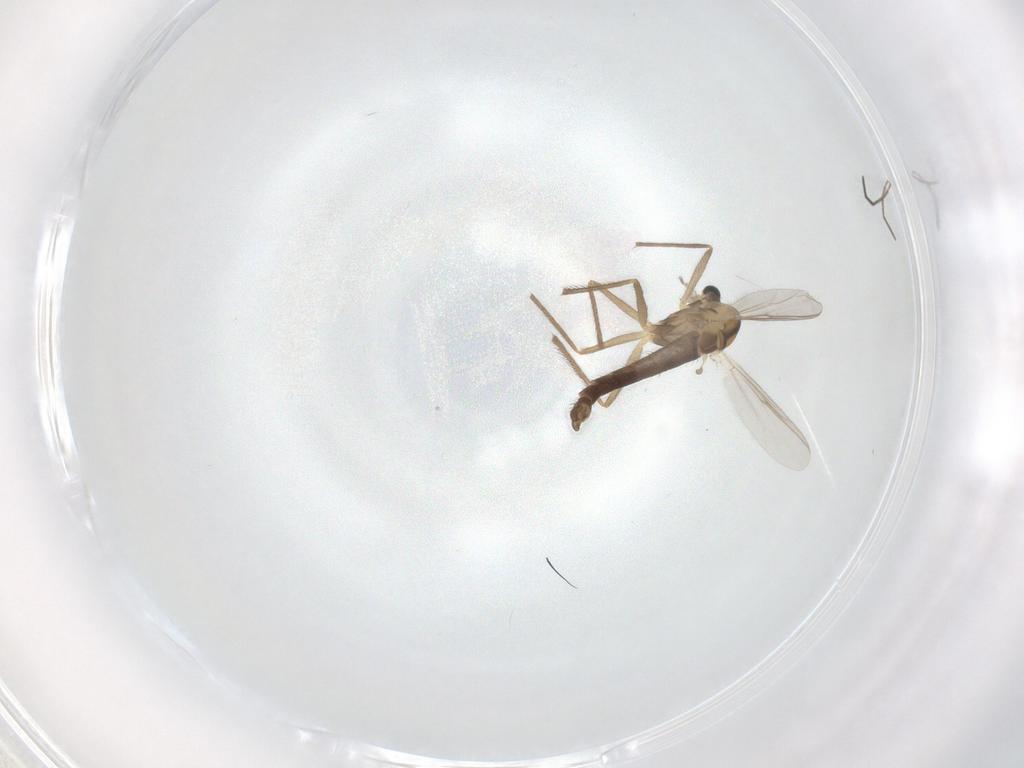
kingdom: Animalia
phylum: Arthropoda
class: Insecta
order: Diptera
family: Chironomidae
